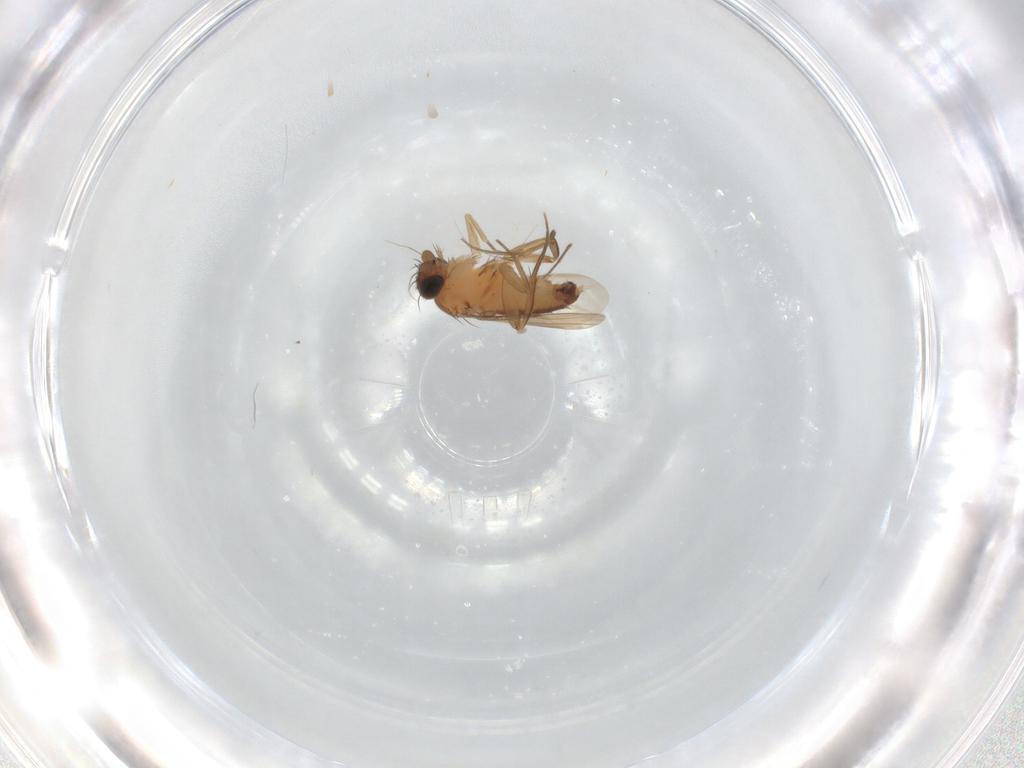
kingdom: Animalia
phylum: Arthropoda
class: Insecta
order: Diptera
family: Phoridae
